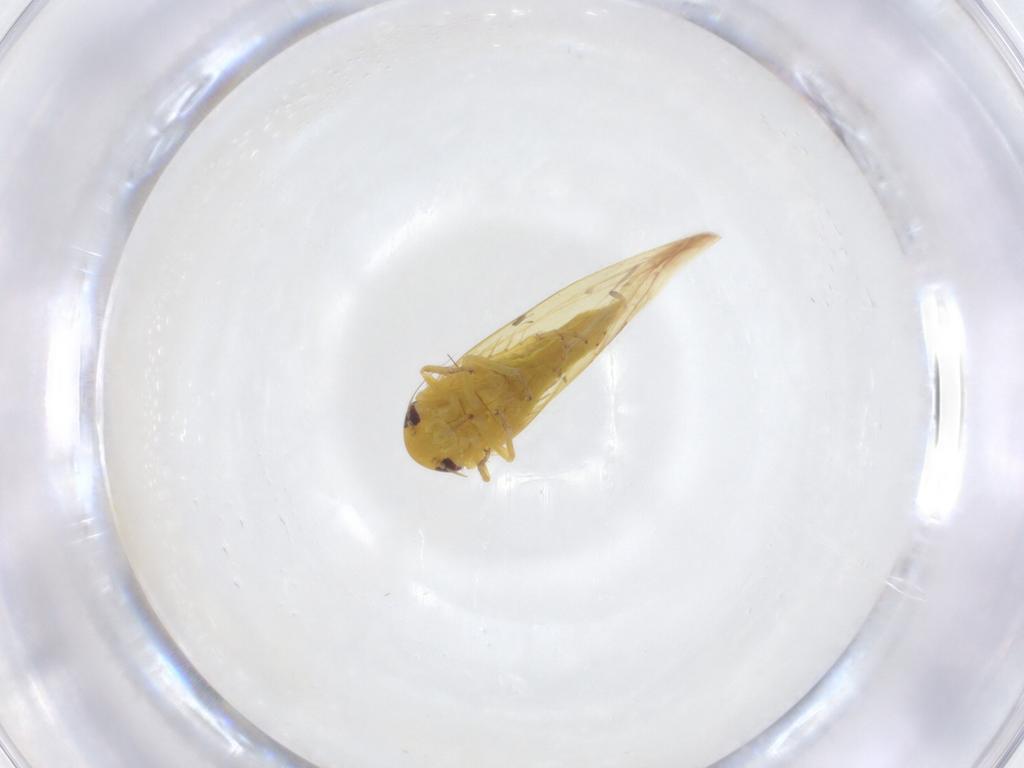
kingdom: Animalia
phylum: Arthropoda
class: Insecta
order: Hemiptera
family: Cicadellidae
